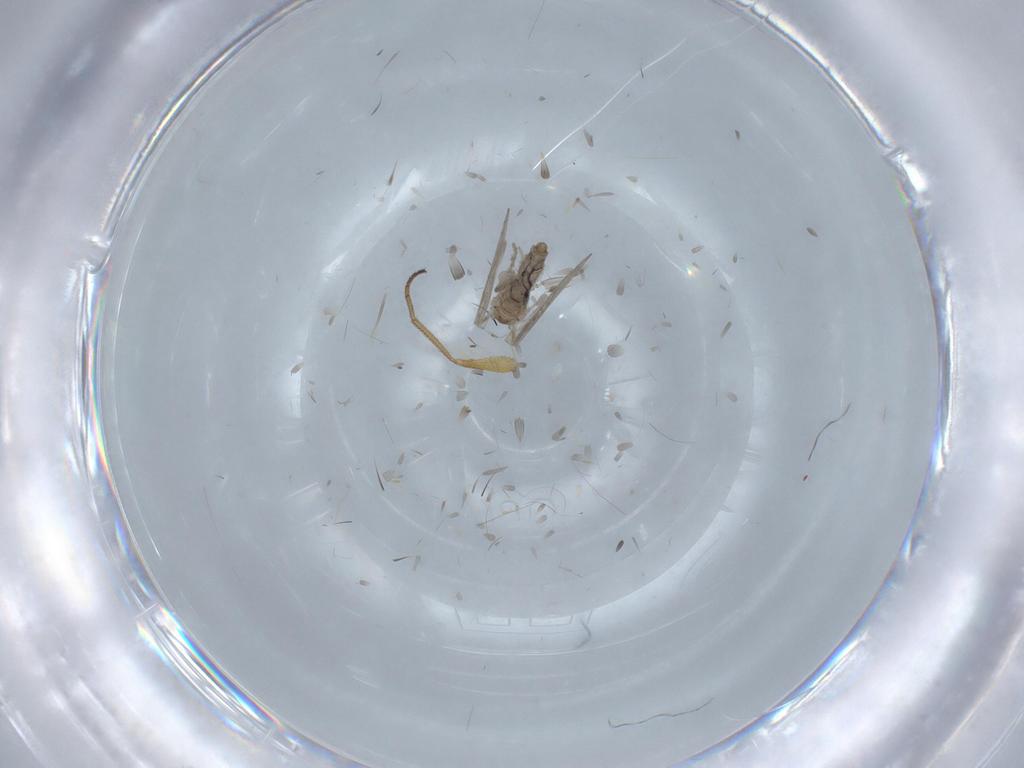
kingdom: Animalia
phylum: Arthropoda
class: Insecta
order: Diptera
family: Psychodidae
